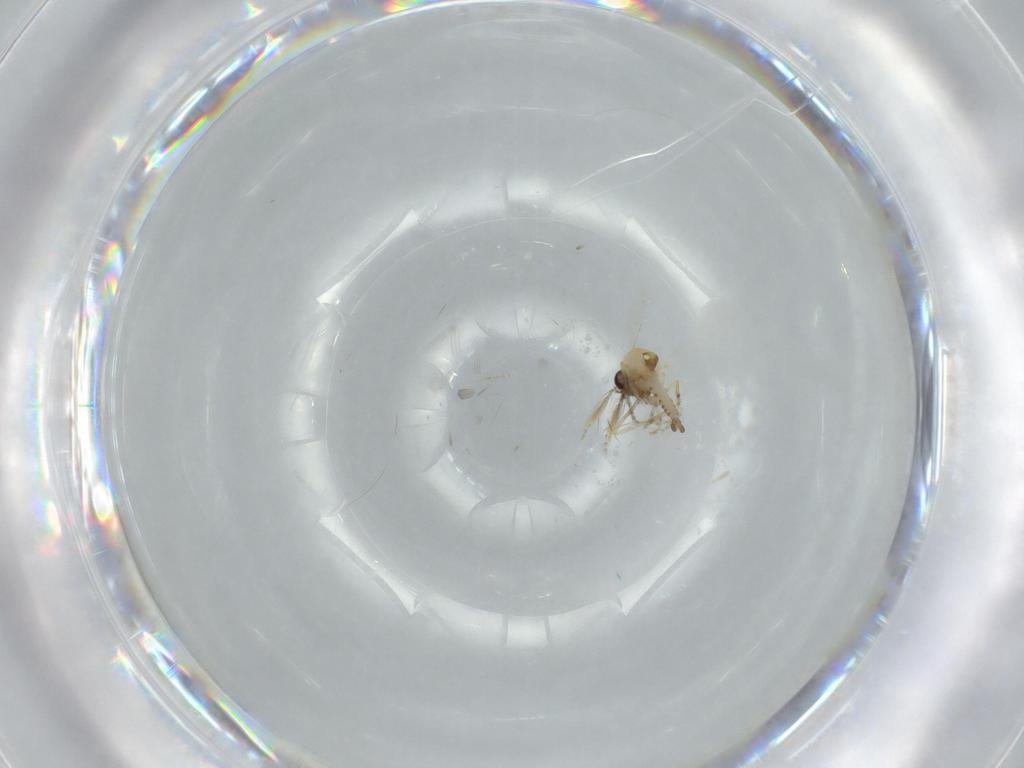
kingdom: Animalia
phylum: Arthropoda
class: Insecta
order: Diptera
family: Ceratopogonidae
